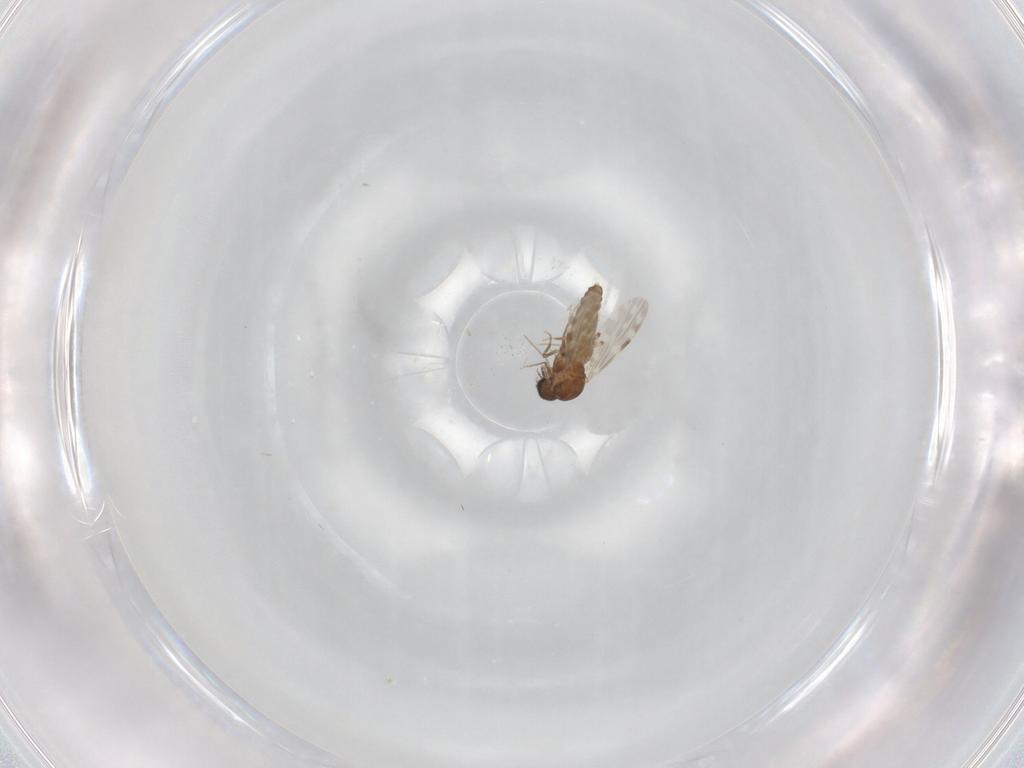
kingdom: Animalia
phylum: Arthropoda
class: Insecta
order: Diptera
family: Ceratopogonidae
